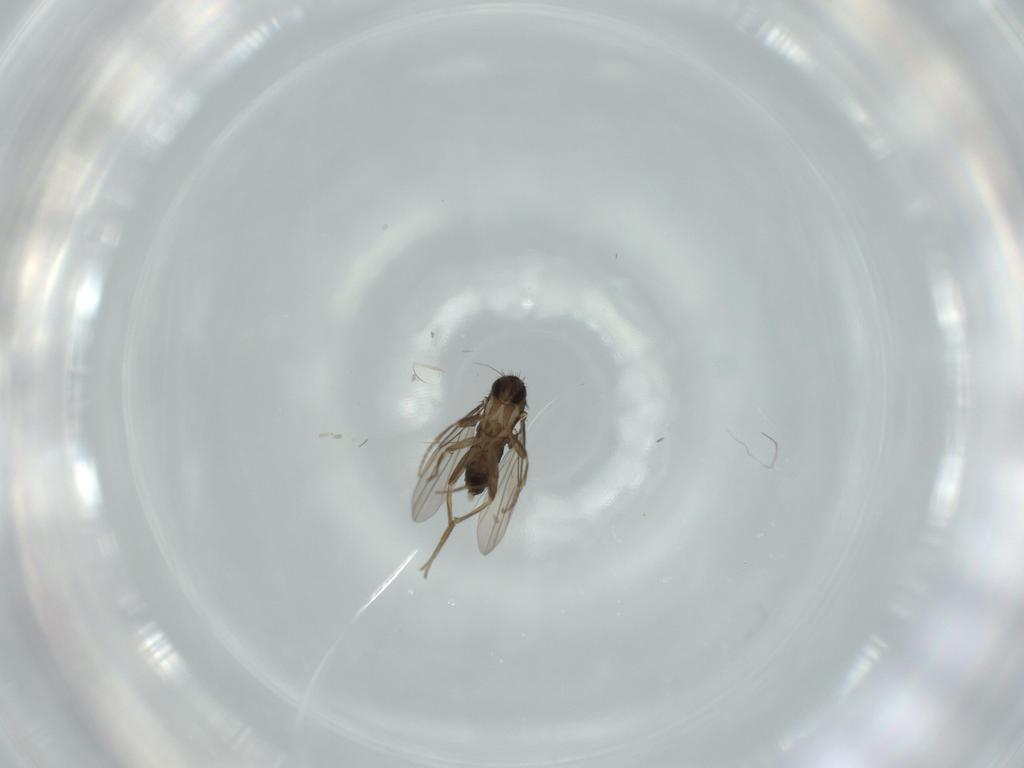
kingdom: Animalia
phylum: Arthropoda
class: Insecta
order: Diptera
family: Phoridae
